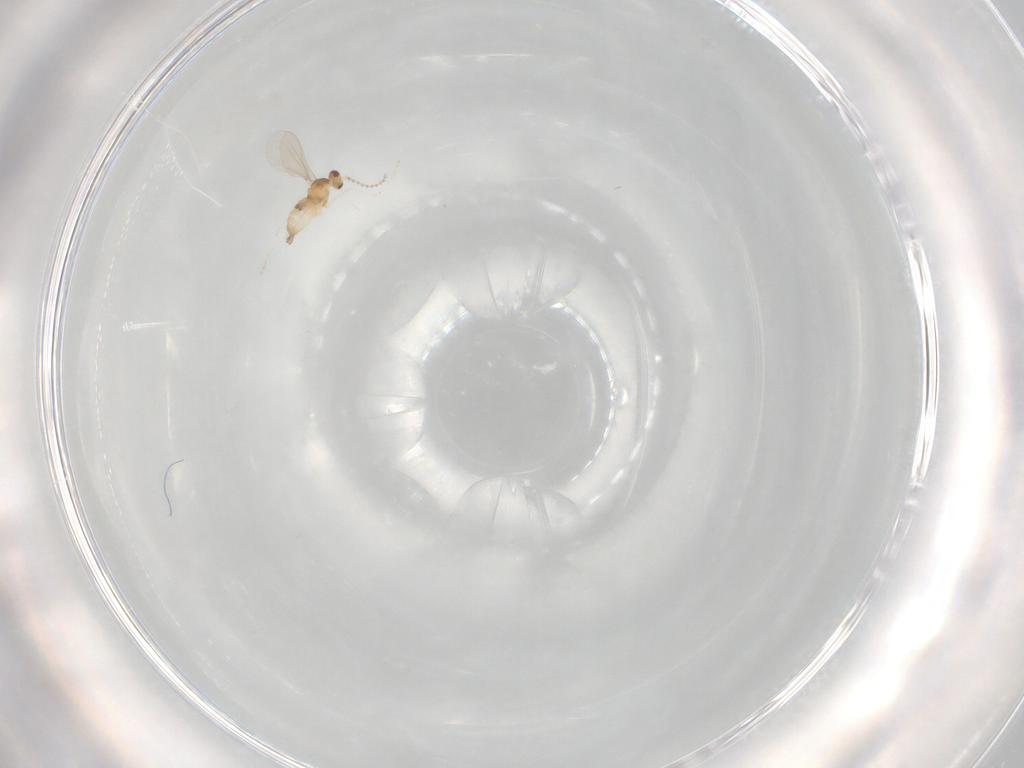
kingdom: Animalia
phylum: Arthropoda
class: Insecta
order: Diptera
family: Cecidomyiidae
